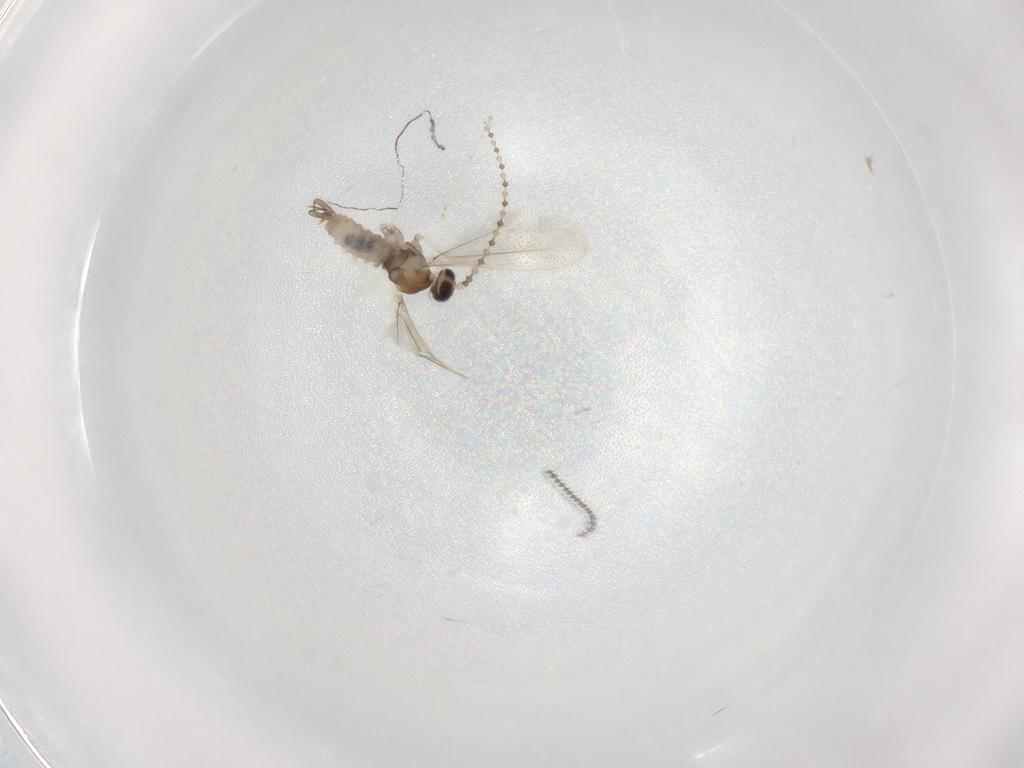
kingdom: Animalia
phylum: Arthropoda
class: Insecta
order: Diptera
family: Cecidomyiidae
